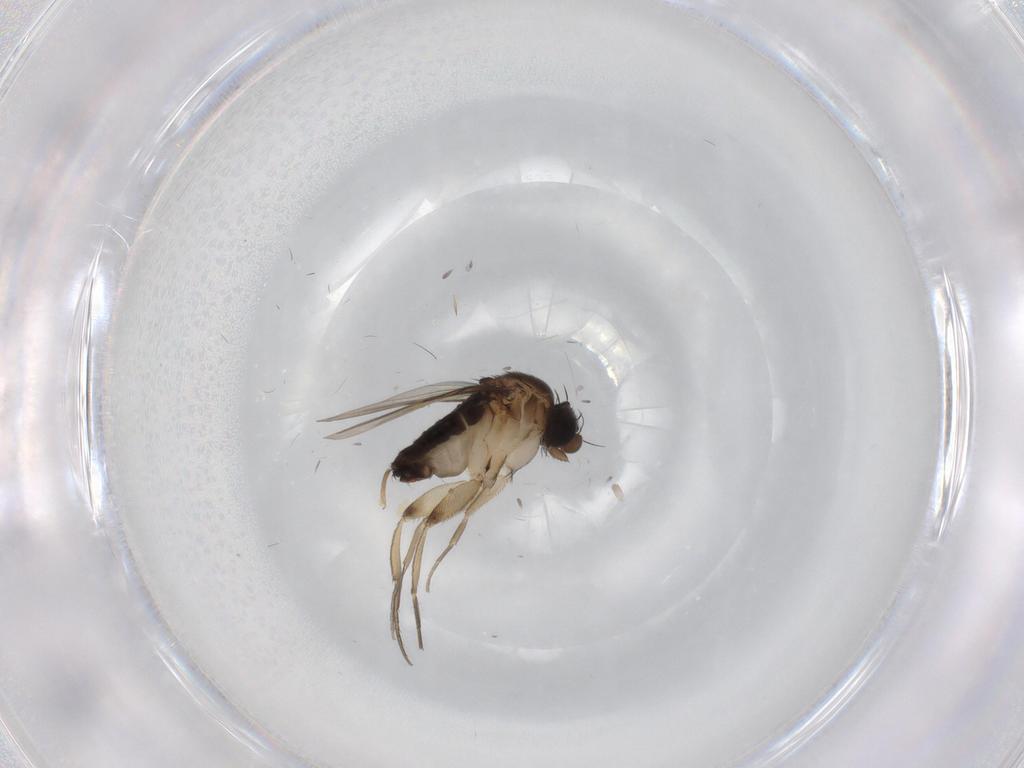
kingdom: Animalia
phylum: Arthropoda
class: Insecta
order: Diptera
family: Phoridae
